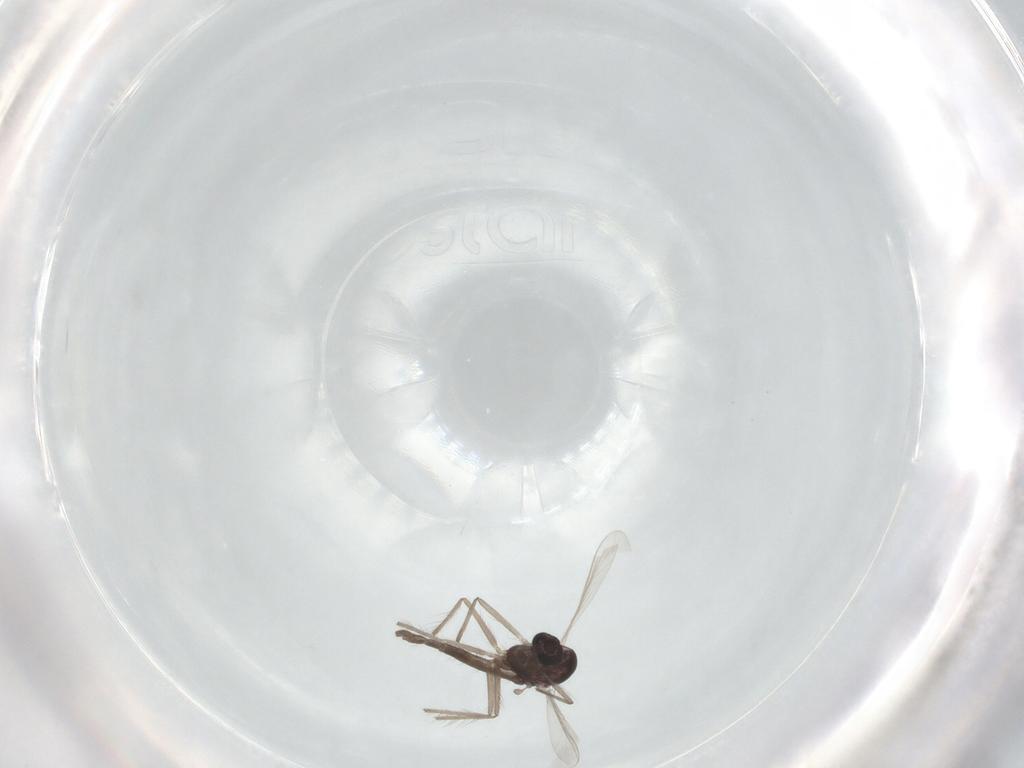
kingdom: Animalia
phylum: Arthropoda
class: Insecta
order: Diptera
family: Chironomidae
